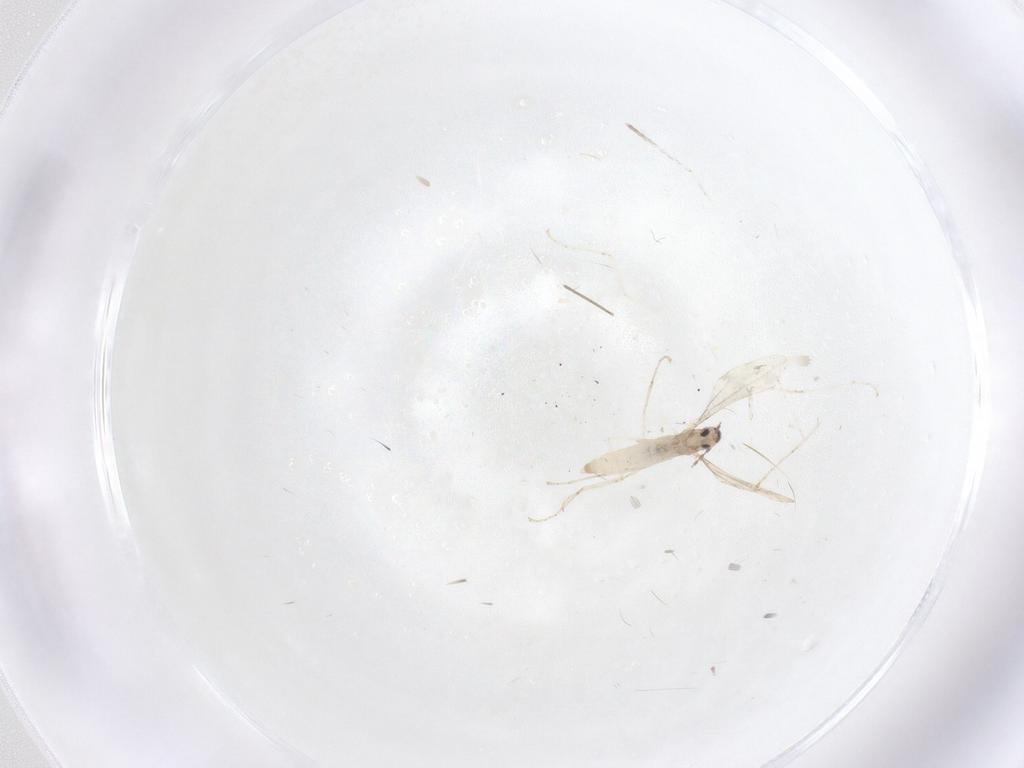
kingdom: Animalia
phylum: Arthropoda
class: Insecta
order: Diptera
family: Cecidomyiidae
